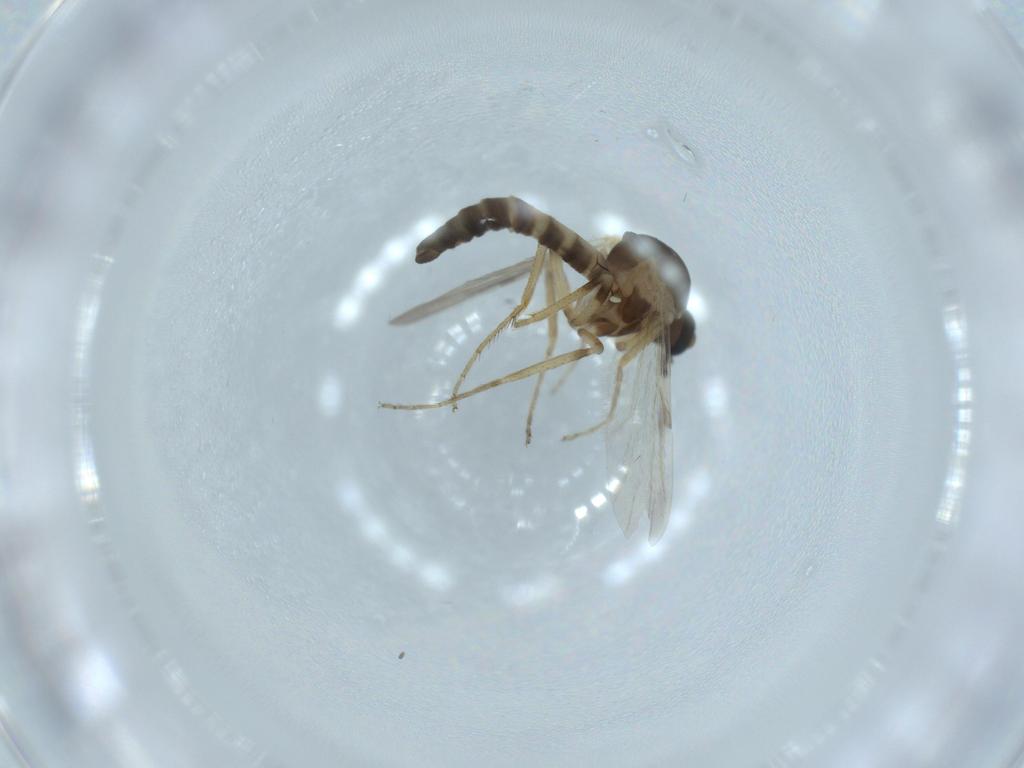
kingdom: Animalia
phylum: Arthropoda
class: Insecta
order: Diptera
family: Ceratopogonidae
